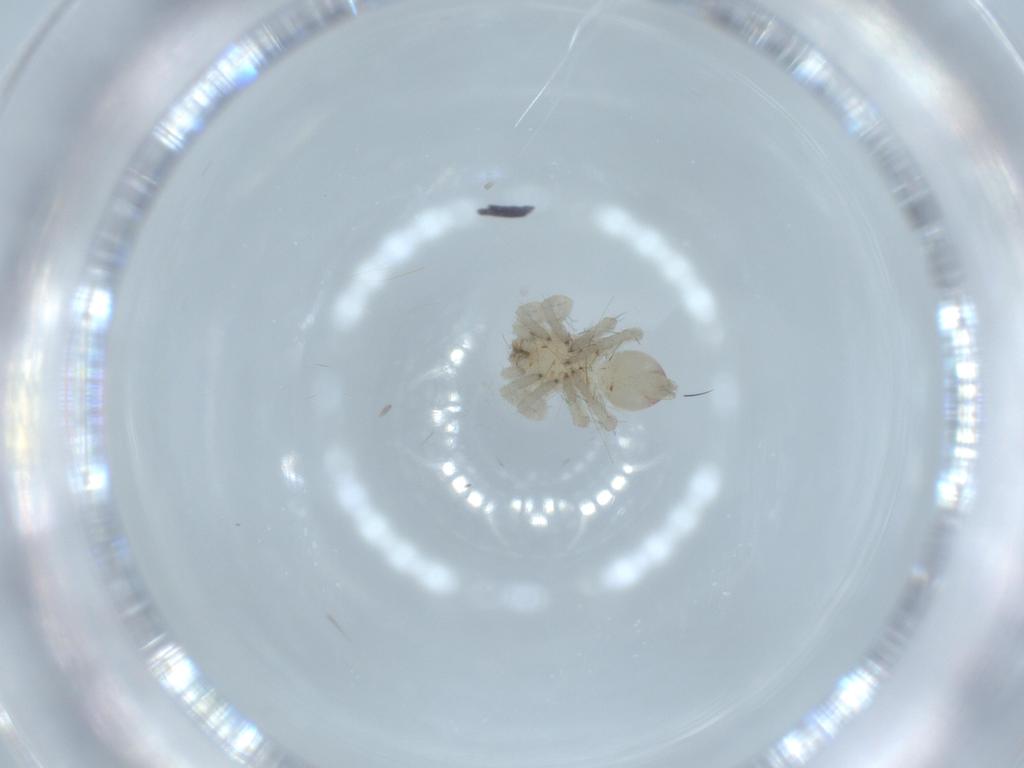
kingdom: Animalia
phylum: Arthropoda
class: Arachnida
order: Araneae
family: Clubionidae
